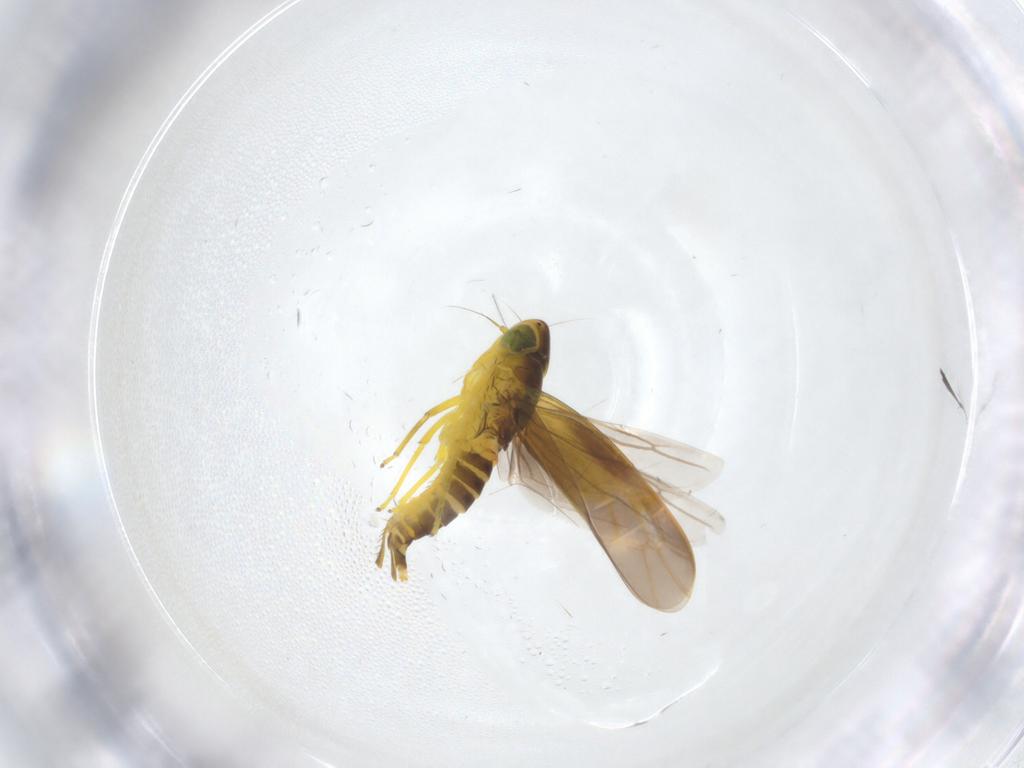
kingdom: Animalia
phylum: Arthropoda
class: Insecta
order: Hemiptera
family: Cicadellidae
